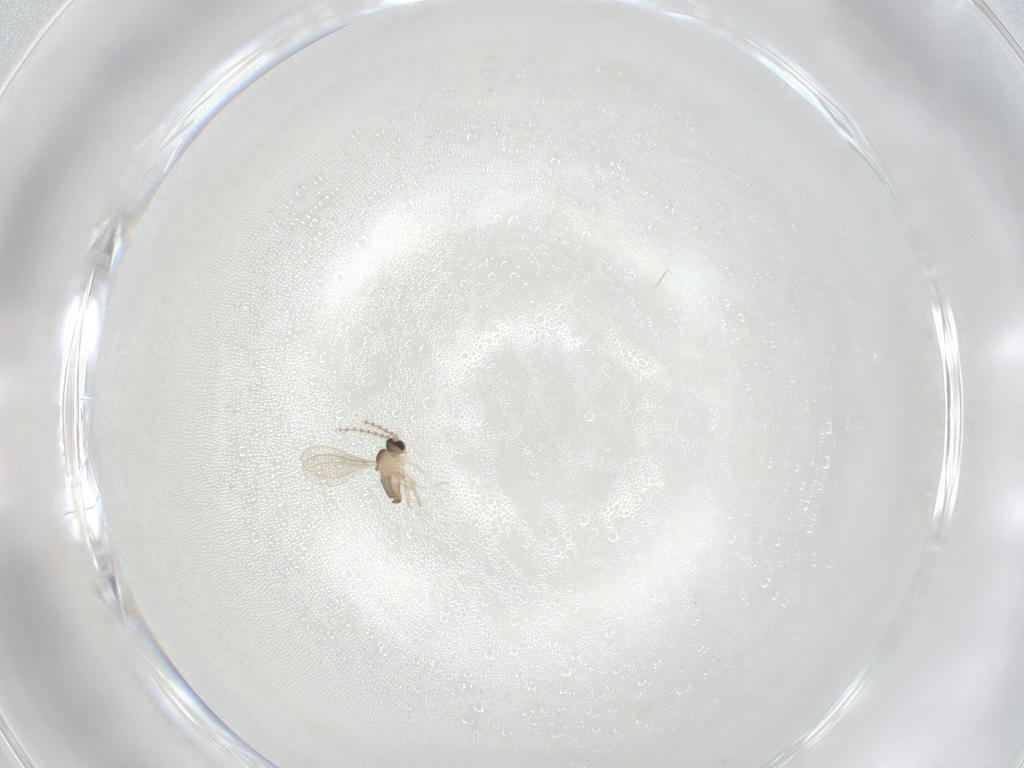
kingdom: Animalia
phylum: Arthropoda
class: Insecta
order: Diptera
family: Cecidomyiidae
